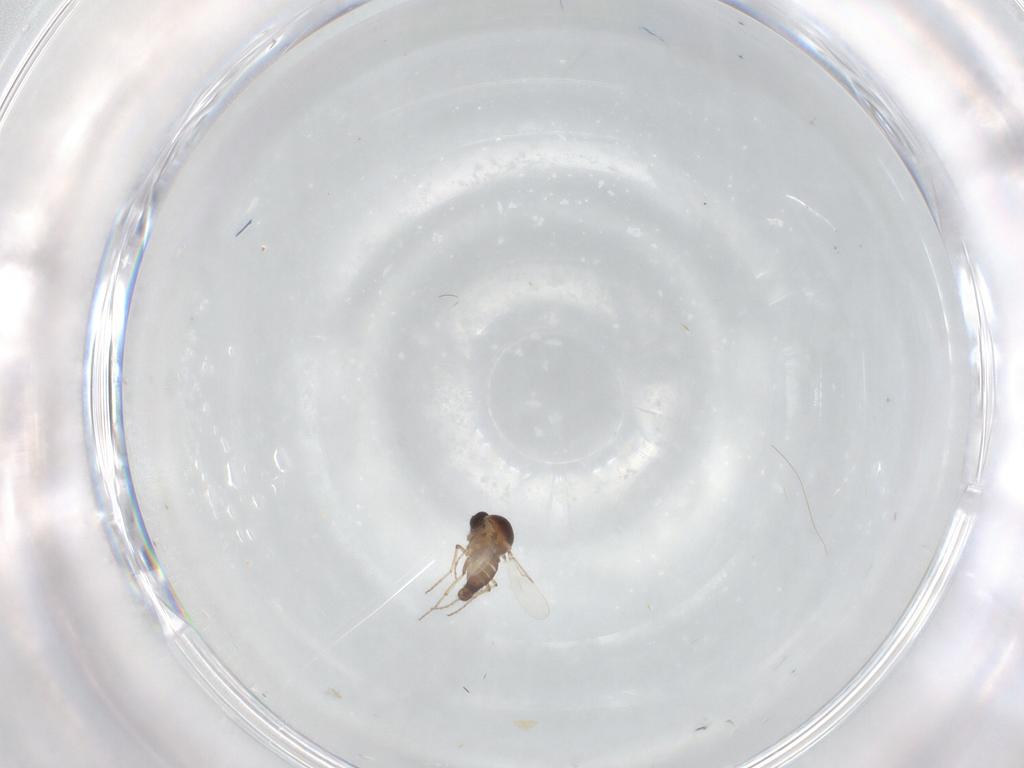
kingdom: Animalia
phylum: Arthropoda
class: Insecta
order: Diptera
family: Ceratopogonidae
